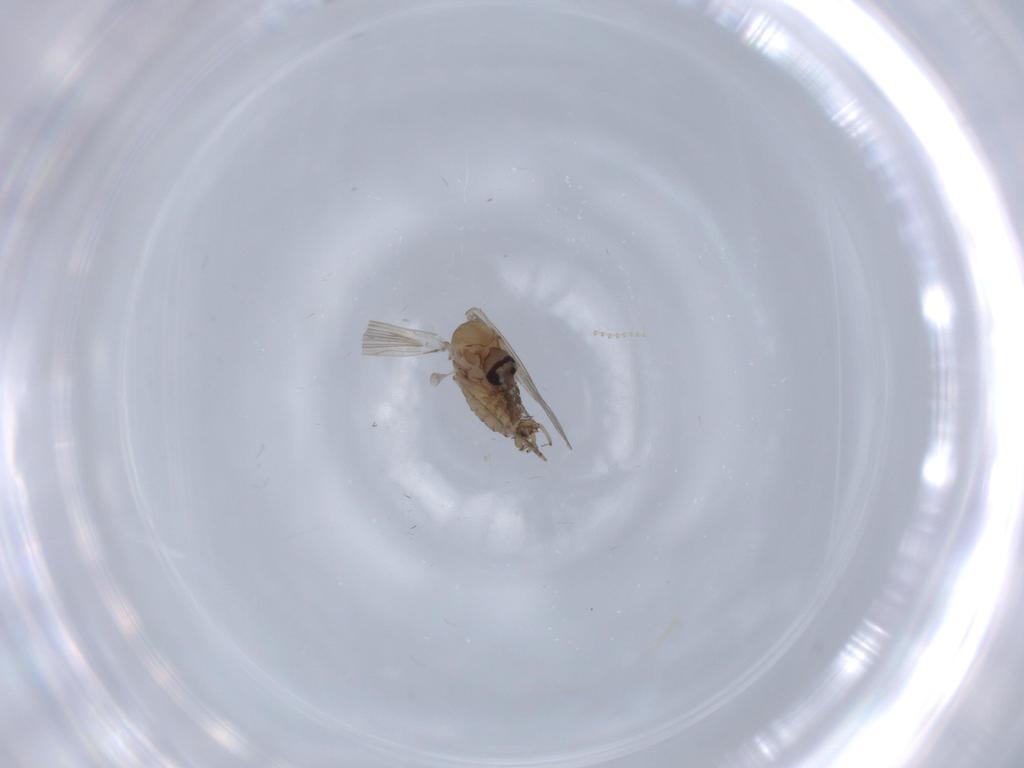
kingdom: Animalia
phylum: Arthropoda
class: Insecta
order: Diptera
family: Psychodidae
